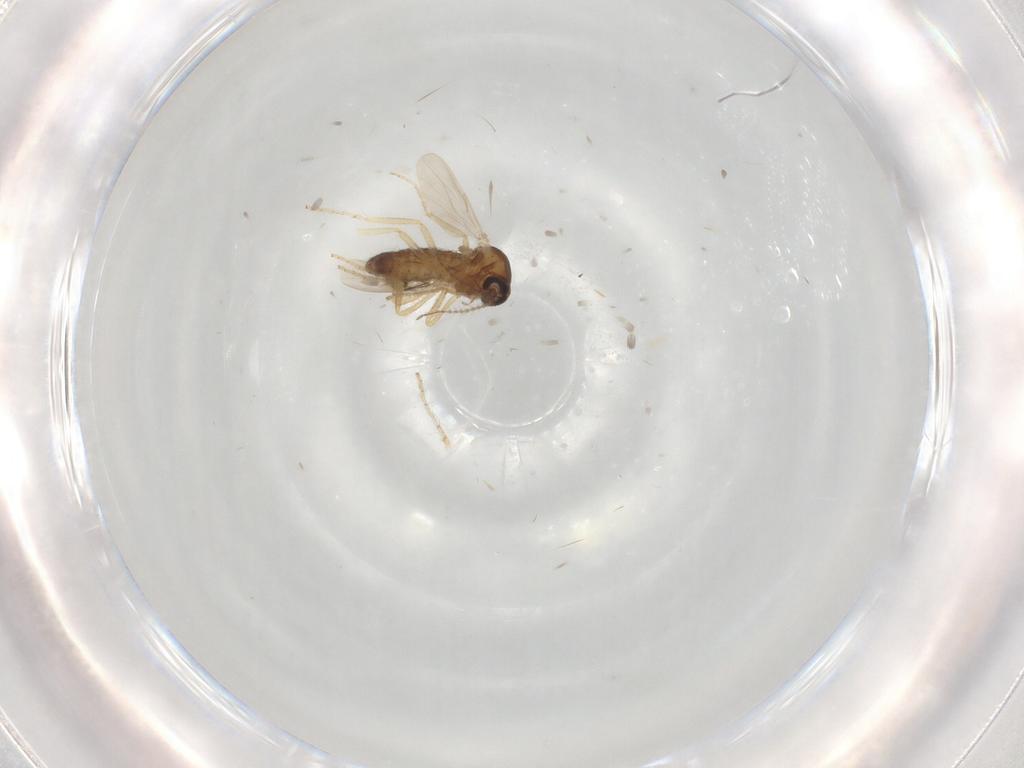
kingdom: Animalia
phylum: Arthropoda
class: Insecta
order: Diptera
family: Ceratopogonidae
